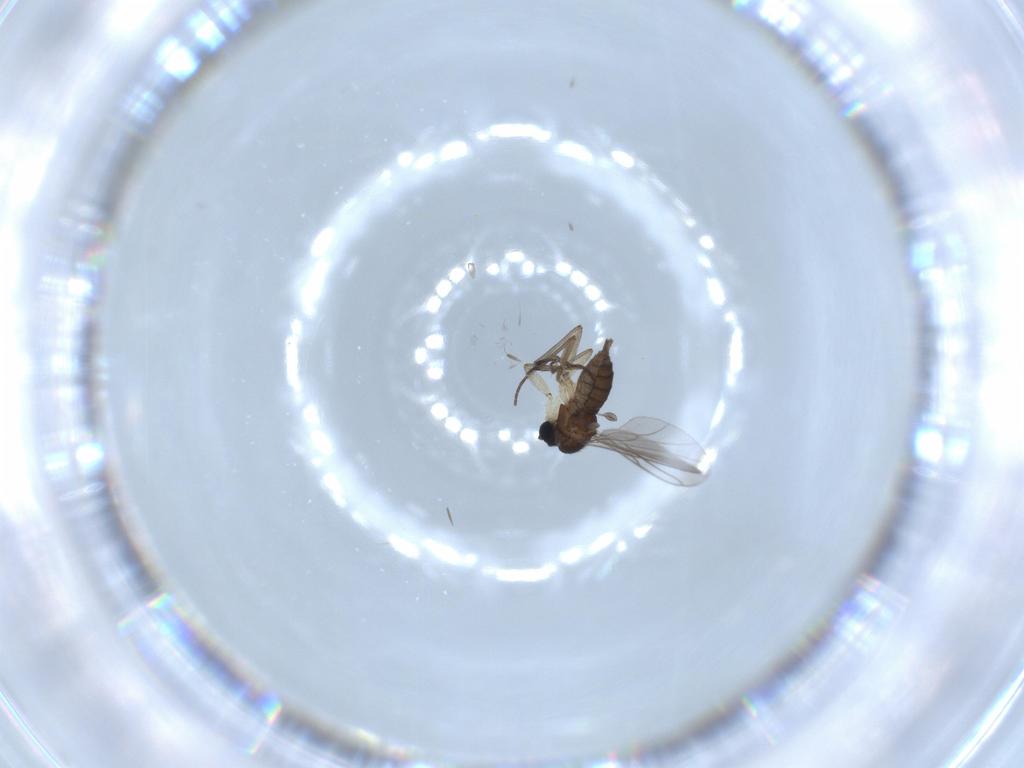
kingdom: Animalia
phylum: Arthropoda
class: Insecta
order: Diptera
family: Sciaridae
